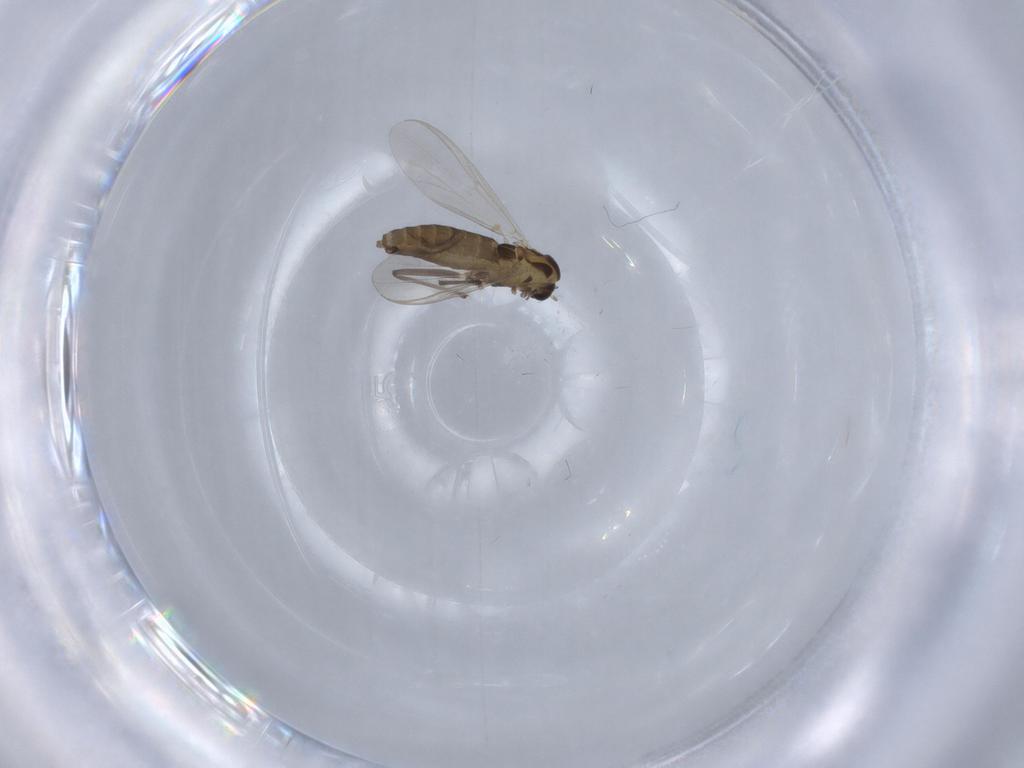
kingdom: Animalia
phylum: Arthropoda
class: Insecta
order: Diptera
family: Chironomidae
